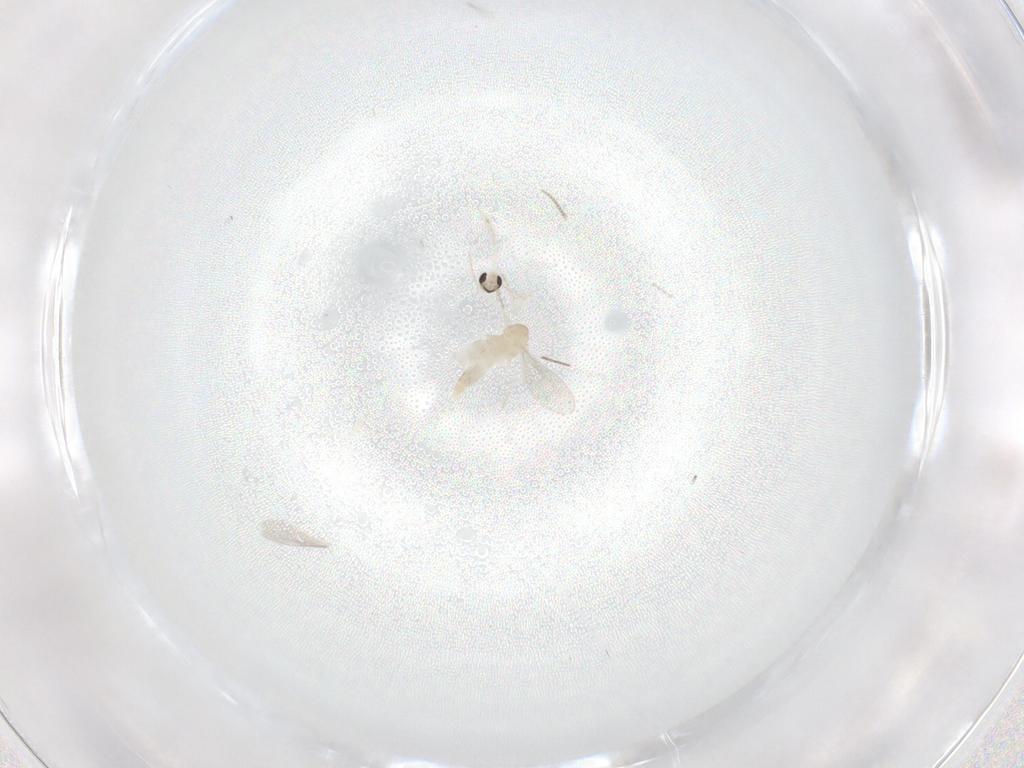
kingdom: Animalia
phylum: Arthropoda
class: Insecta
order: Diptera
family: Cecidomyiidae
